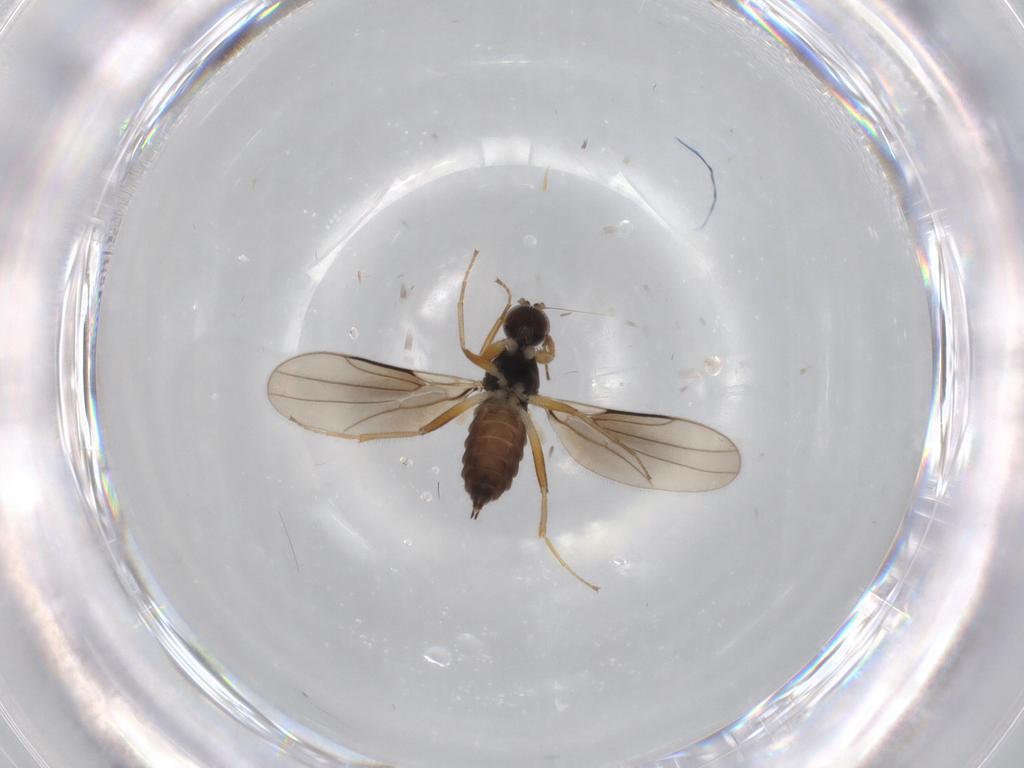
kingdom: Animalia
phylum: Arthropoda
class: Insecta
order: Diptera
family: Hybotidae
